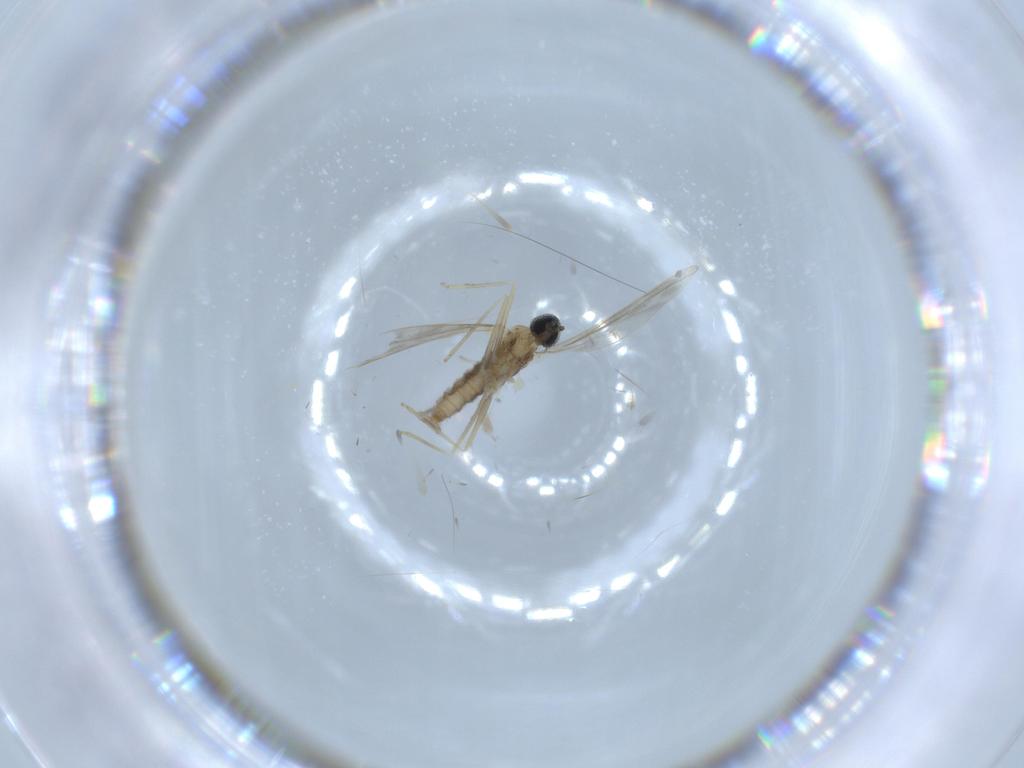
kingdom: Animalia
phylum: Arthropoda
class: Insecta
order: Diptera
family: Cecidomyiidae
